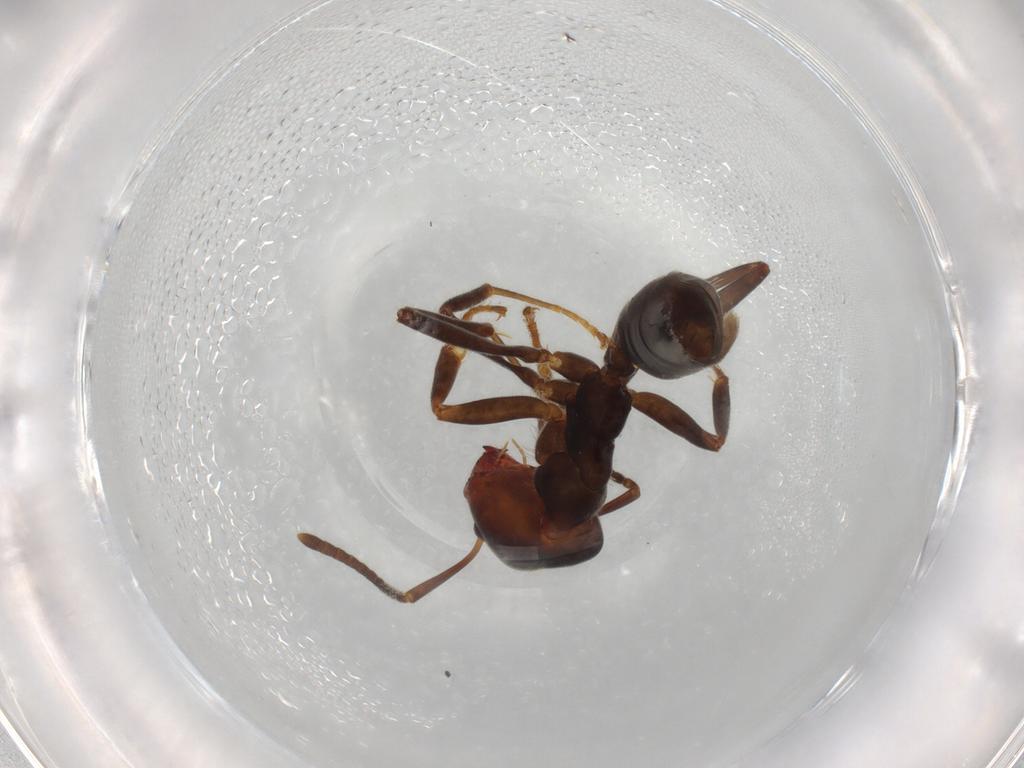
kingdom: Animalia
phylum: Arthropoda
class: Insecta
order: Hymenoptera
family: Formicidae
